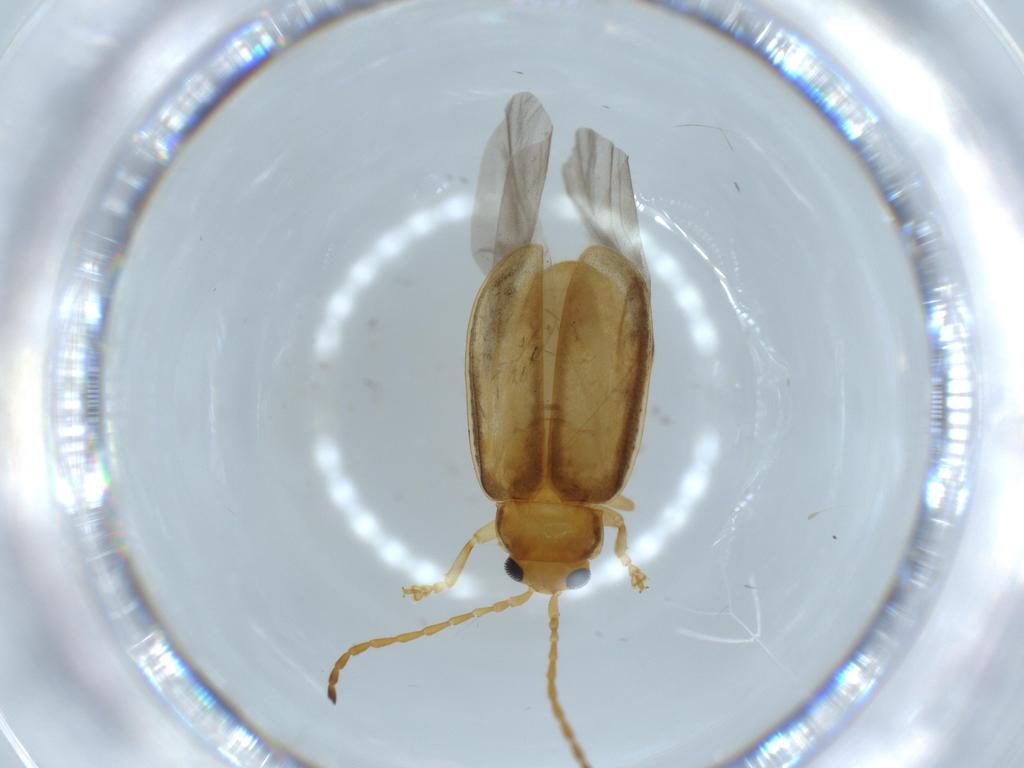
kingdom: Animalia
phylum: Arthropoda
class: Insecta
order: Coleoptera
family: Chrysomelidae
